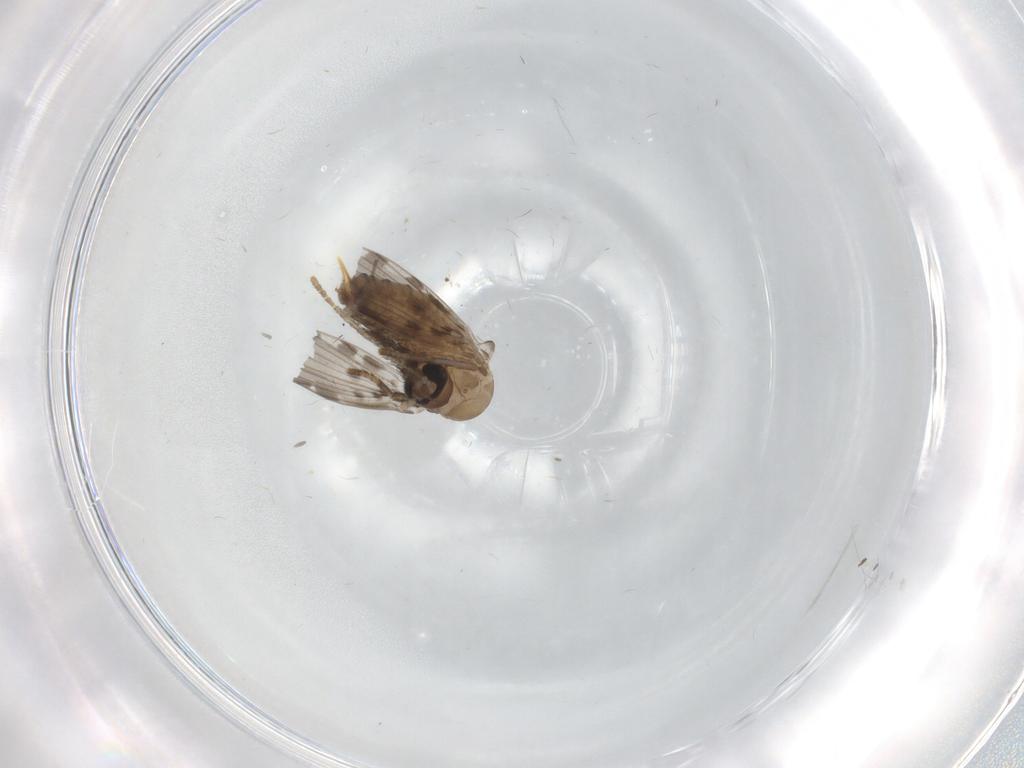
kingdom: Animalia
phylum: Arthropoda
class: Insecta
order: Diptera
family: Psychodidae
